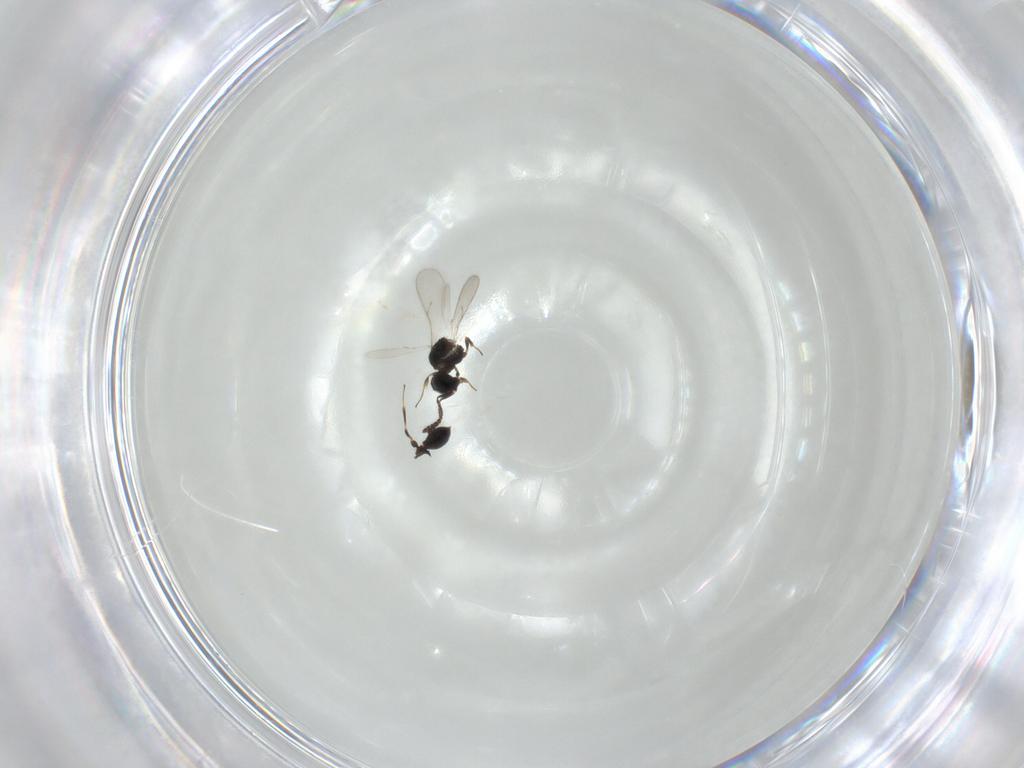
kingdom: Animalia
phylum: Arthropoda
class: Insecta
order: Hymenoptera
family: Scelionidae
